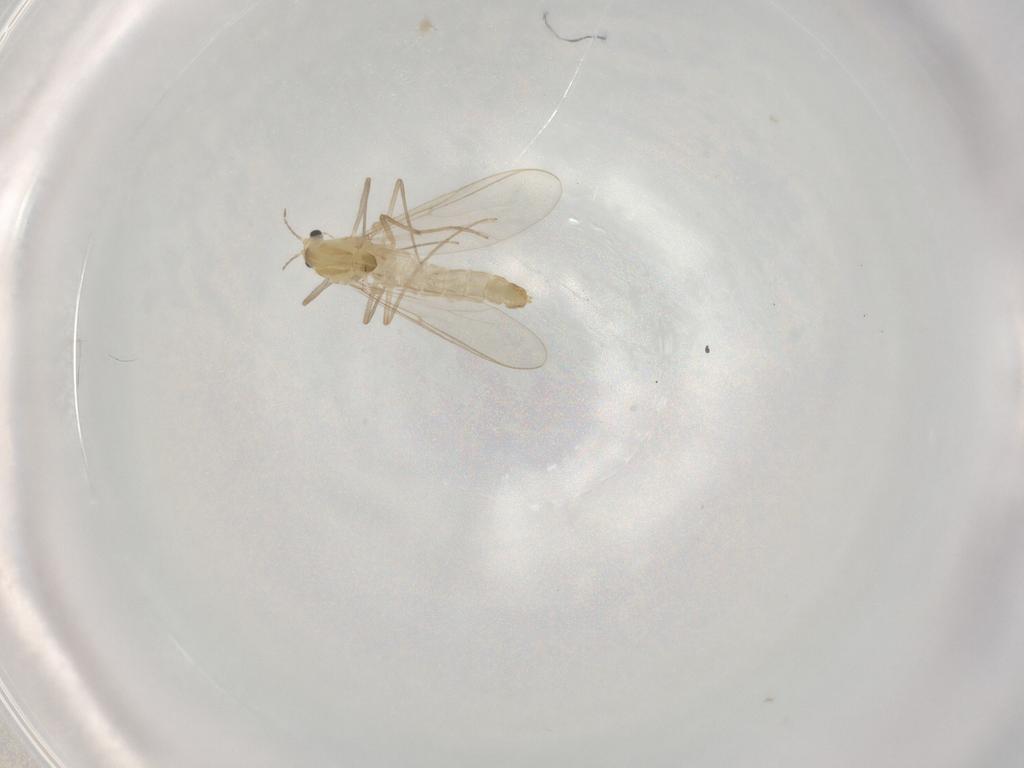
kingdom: Animalia
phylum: Arthropoda
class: Insecta
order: Diptera
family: Chironomidae
